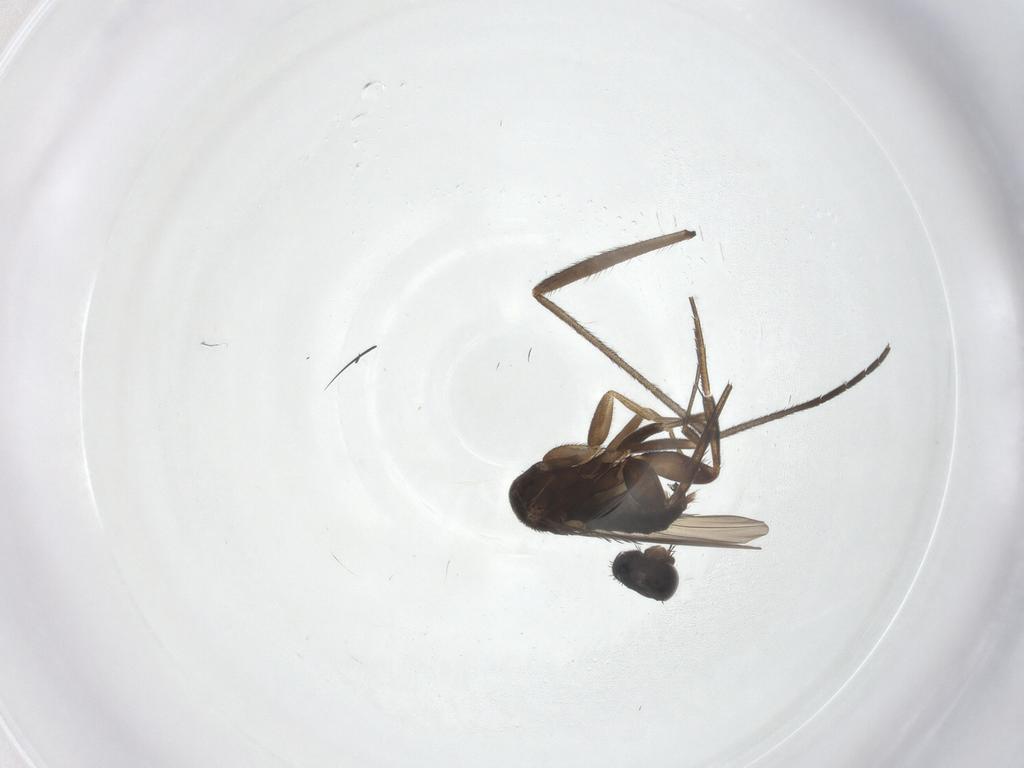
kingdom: Animalia
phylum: Arthropoda
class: Insecta
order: Diptera
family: Phoridae
